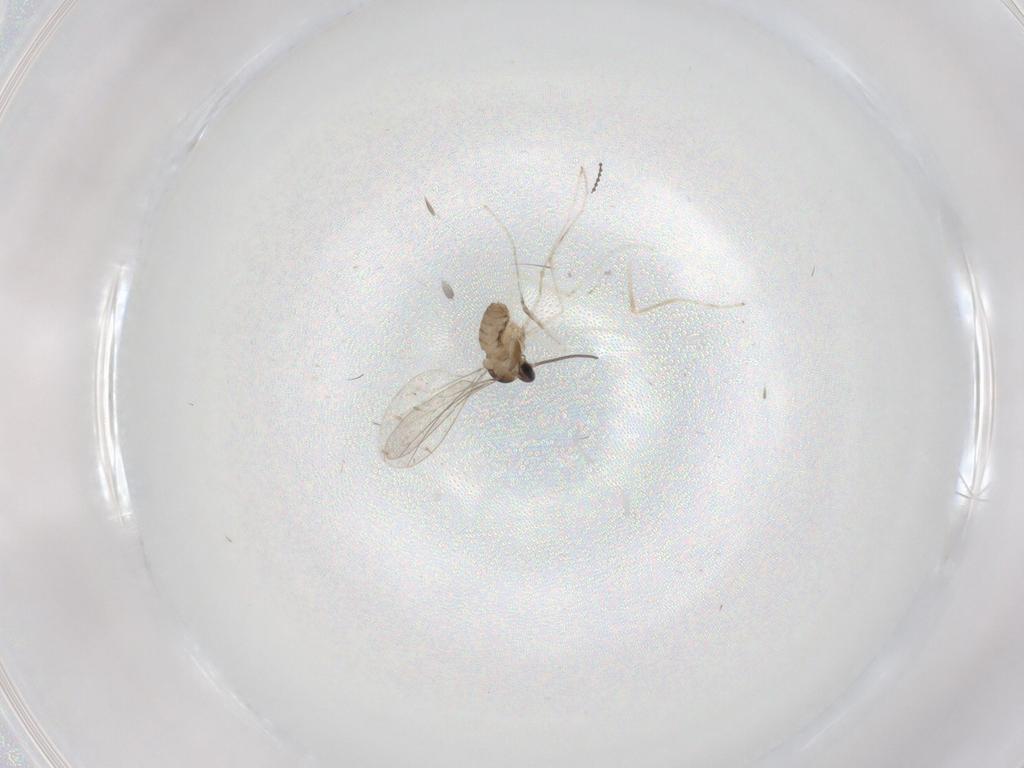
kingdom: Animalia
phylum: Arthropoda
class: Insecta
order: Diptera
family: Cecidomyiidae
